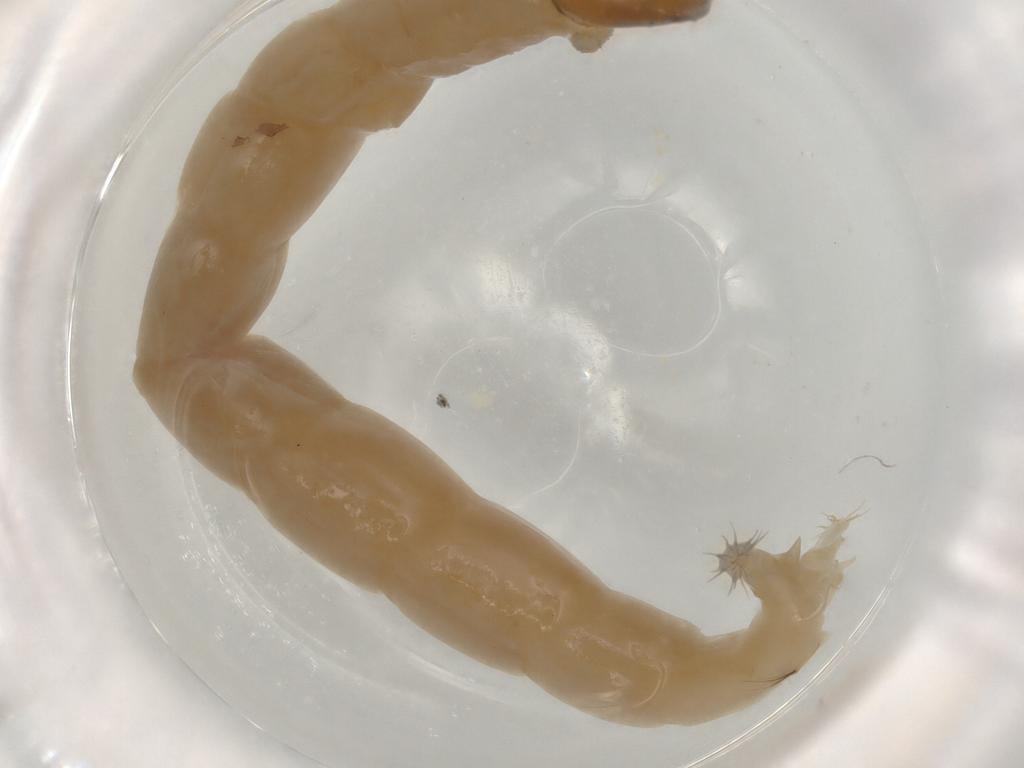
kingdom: Animalia
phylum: Arthropoda
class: Insecta
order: Diptera
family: Chironomidae
